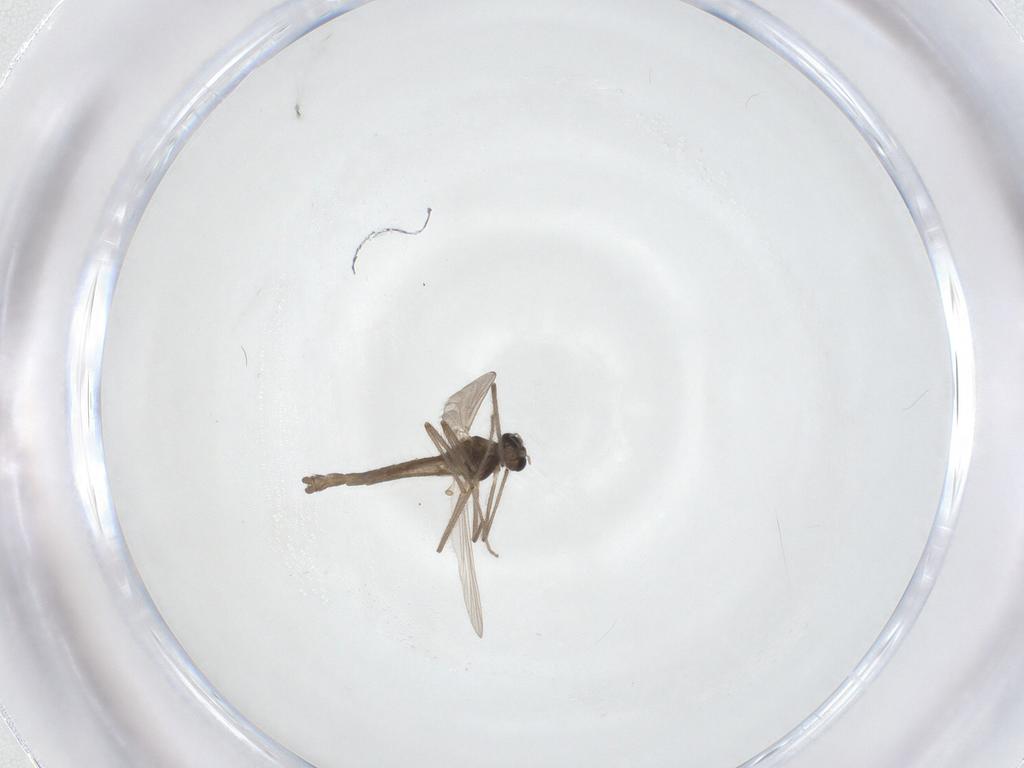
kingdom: Animalia
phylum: Arthropoda
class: Insecta
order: Diptera
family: Chironomidae
